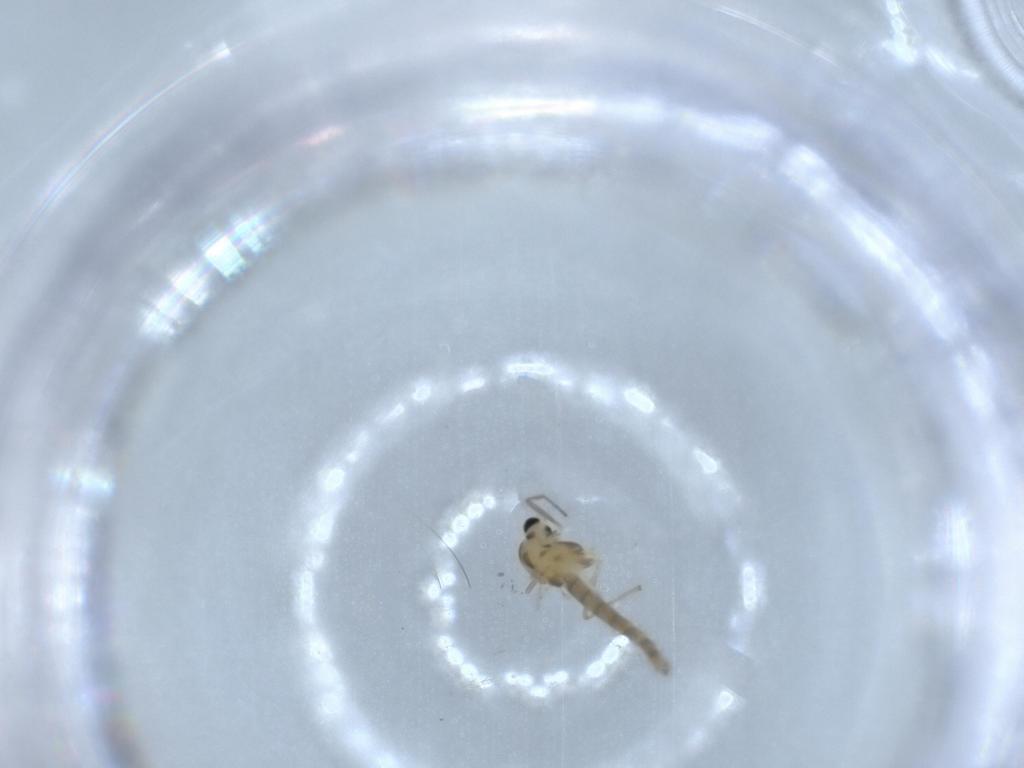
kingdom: Animalia
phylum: Arthropoda
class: Insecta
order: Diptera
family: Chironomidae
